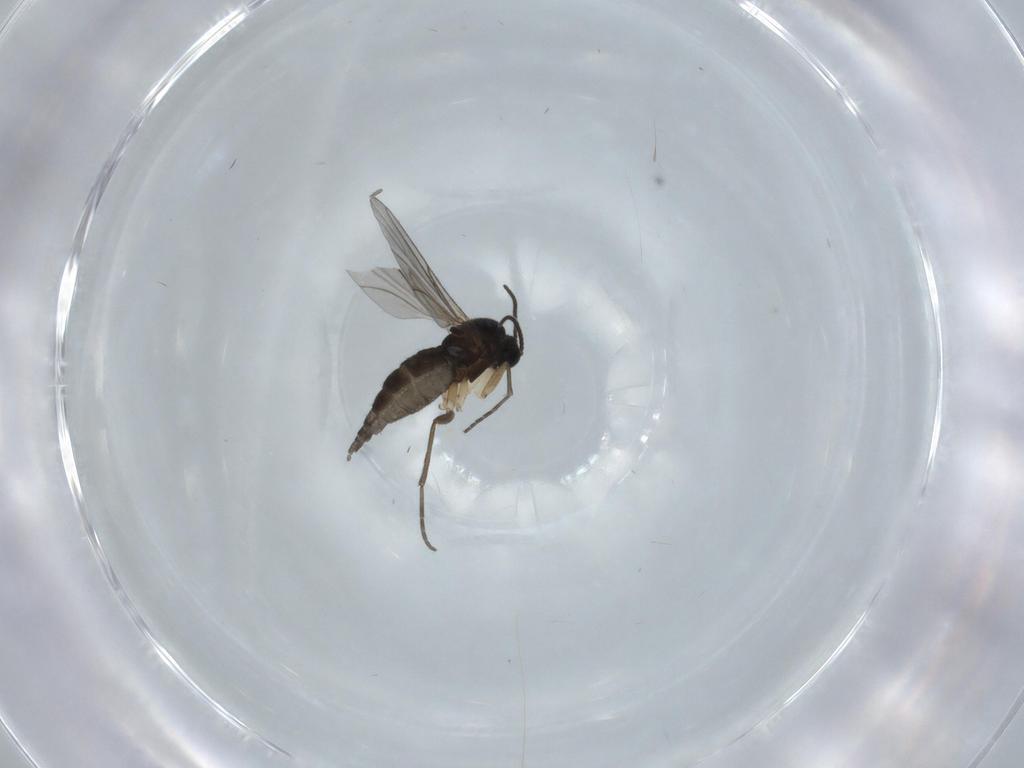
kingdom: Animalia
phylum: Arthropoda
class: Insecta
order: Diptera
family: Sciaridae
